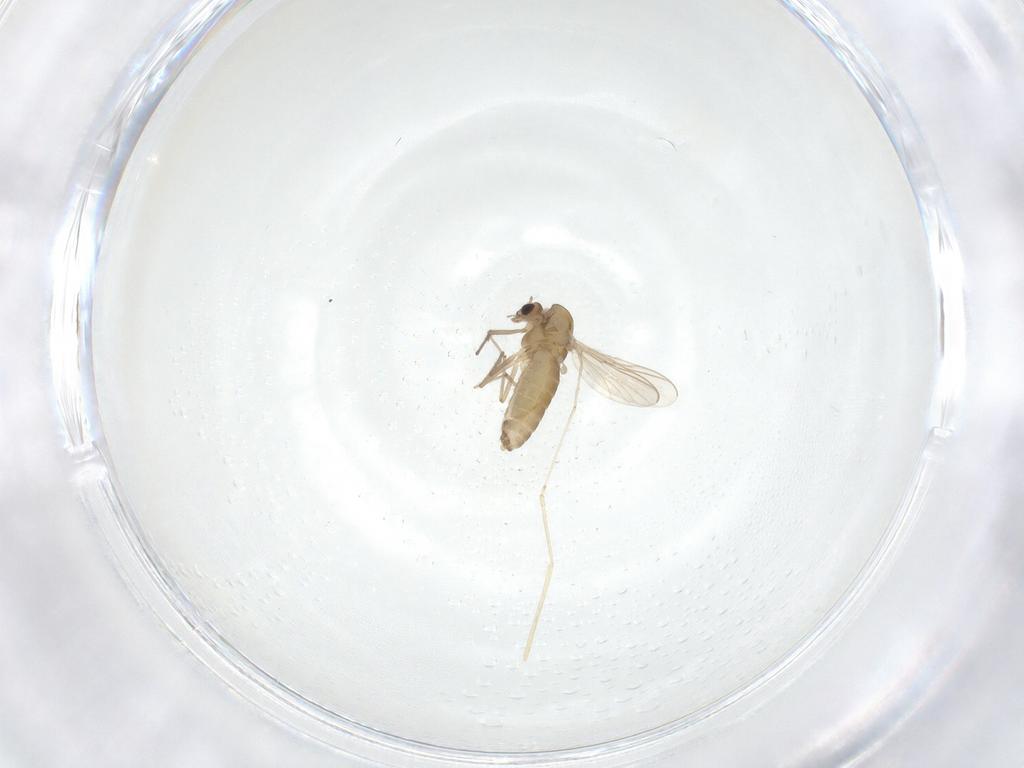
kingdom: Animalia
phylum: Arthropoda
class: Insecta
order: Diptera
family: Cecidomyiidae
